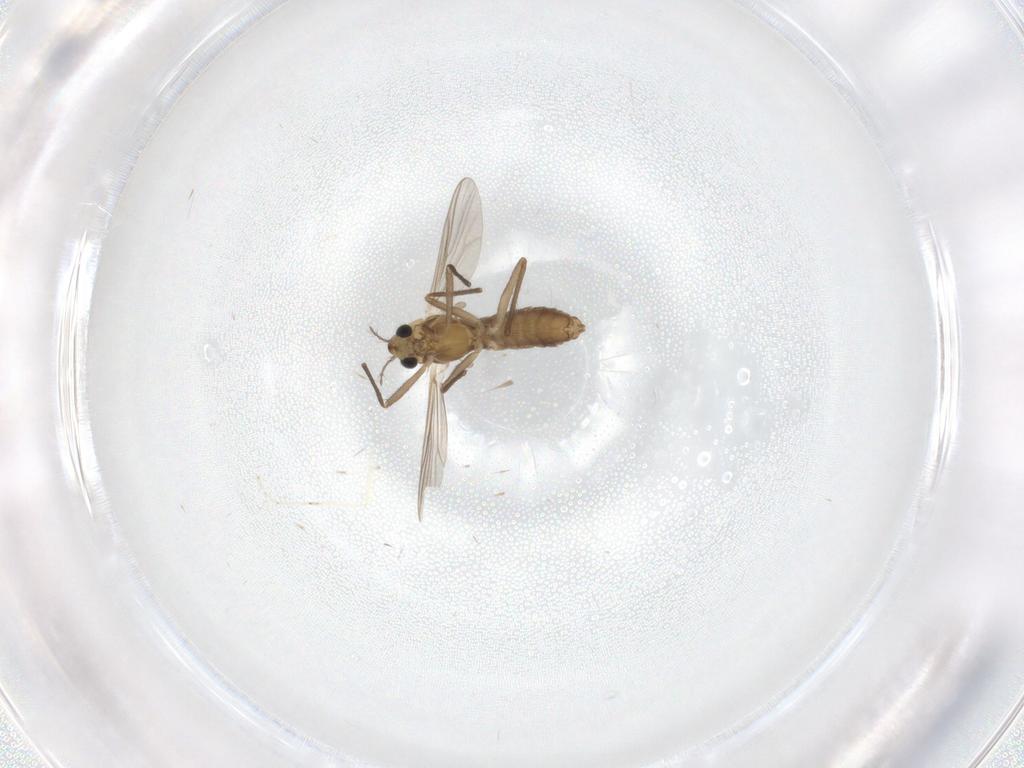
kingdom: Animalia
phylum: Arthropoda
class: Insecta
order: Diptera
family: Chironomidae
